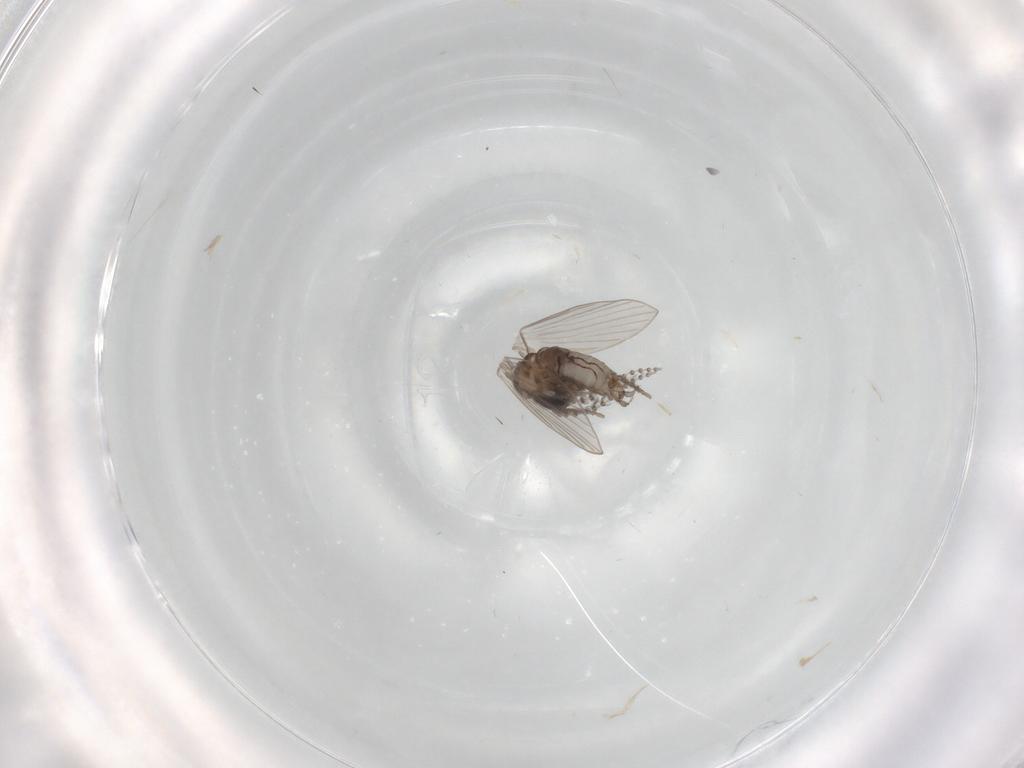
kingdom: Animalia
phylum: Arthropoda
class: Insecta
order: Diptera
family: Psychodidae
